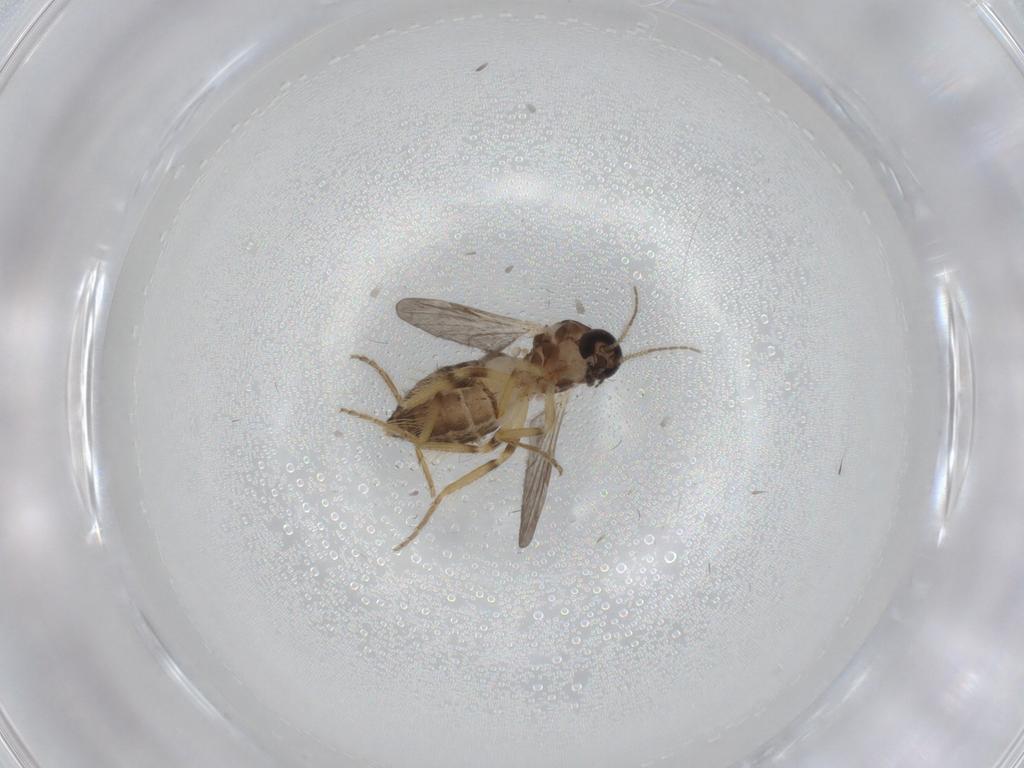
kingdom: Animalia
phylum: Arthropoda
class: Insecta
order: Diptera
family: Ceratopogonidae
